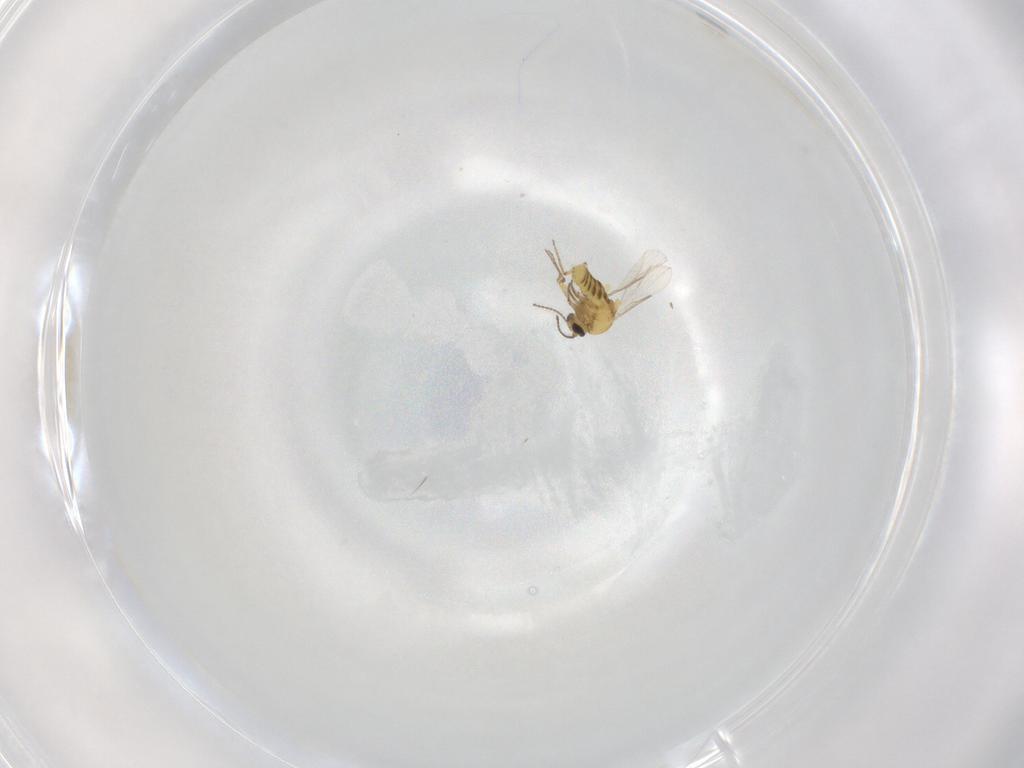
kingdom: Animalia
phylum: Arthropoda
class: Insecta
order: Diptera
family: Ceratopogonidae
